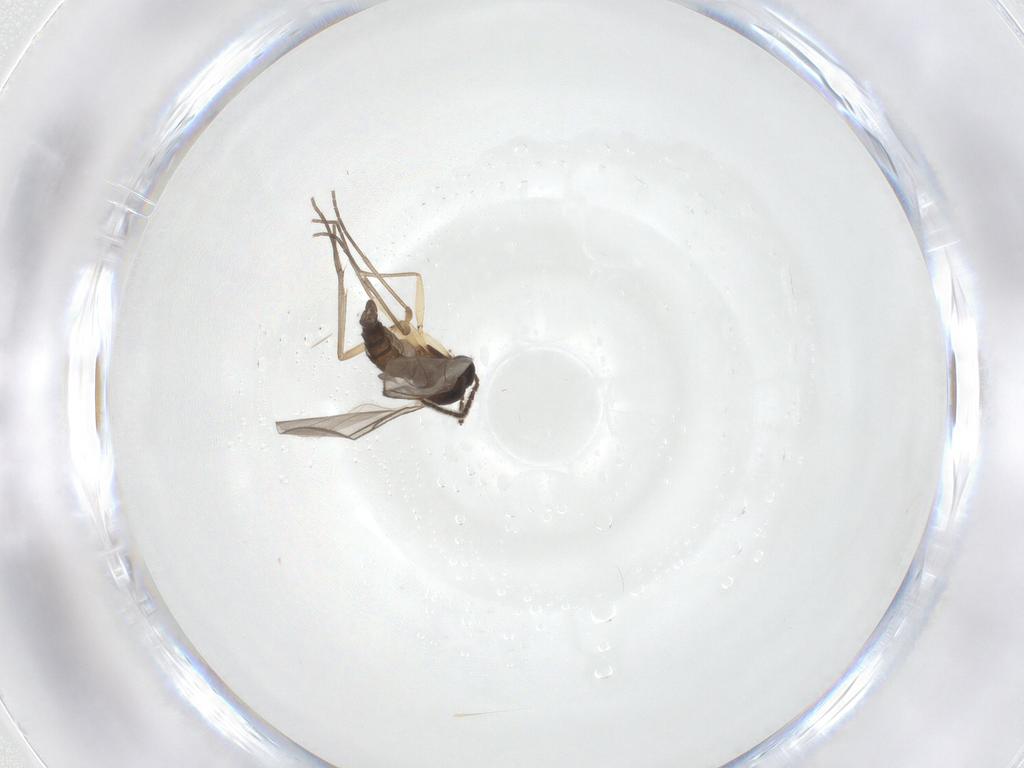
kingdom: Animalia
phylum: Arthropoda
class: Insecta
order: Diptera
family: Sciaridae
